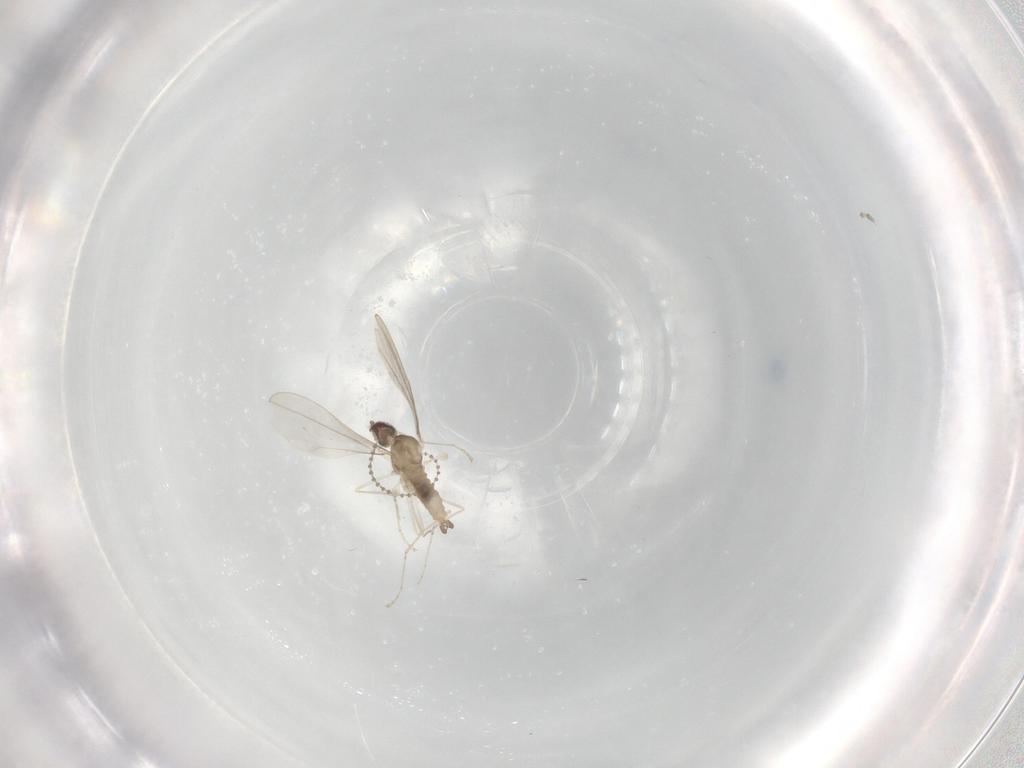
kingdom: Animalia
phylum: Arthropoda
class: Insecta
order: Diptera
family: Cecidomyiidae
